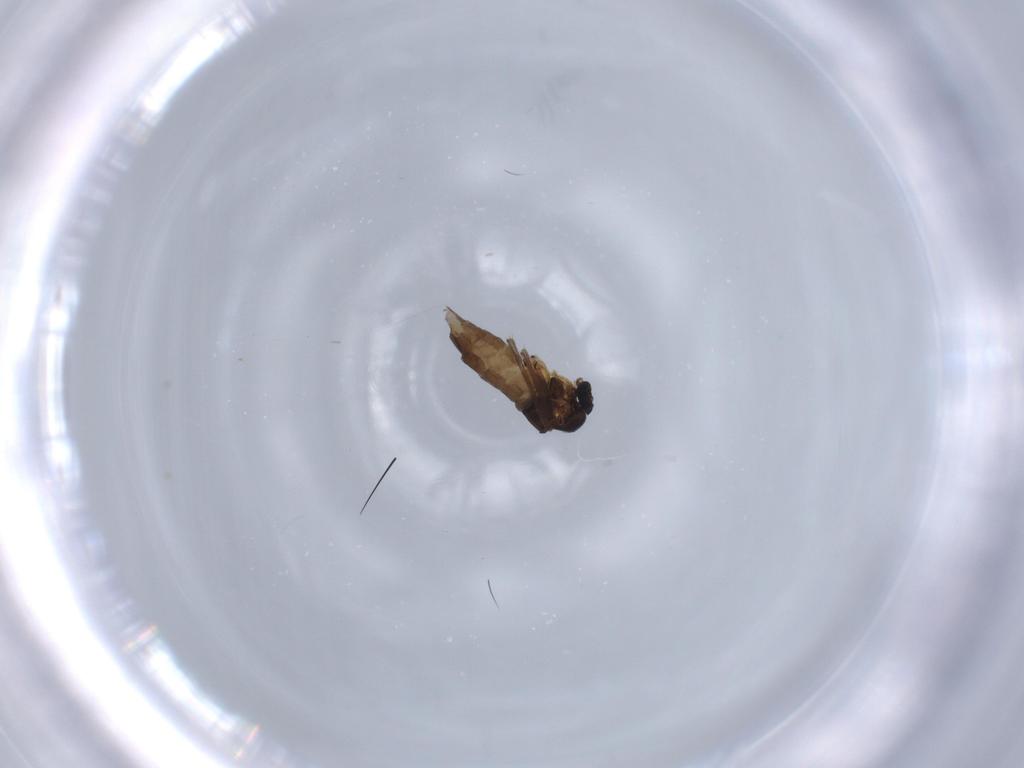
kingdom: Animalia
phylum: Arthropoda
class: Insecta
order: Diptera
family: Sciaridae
